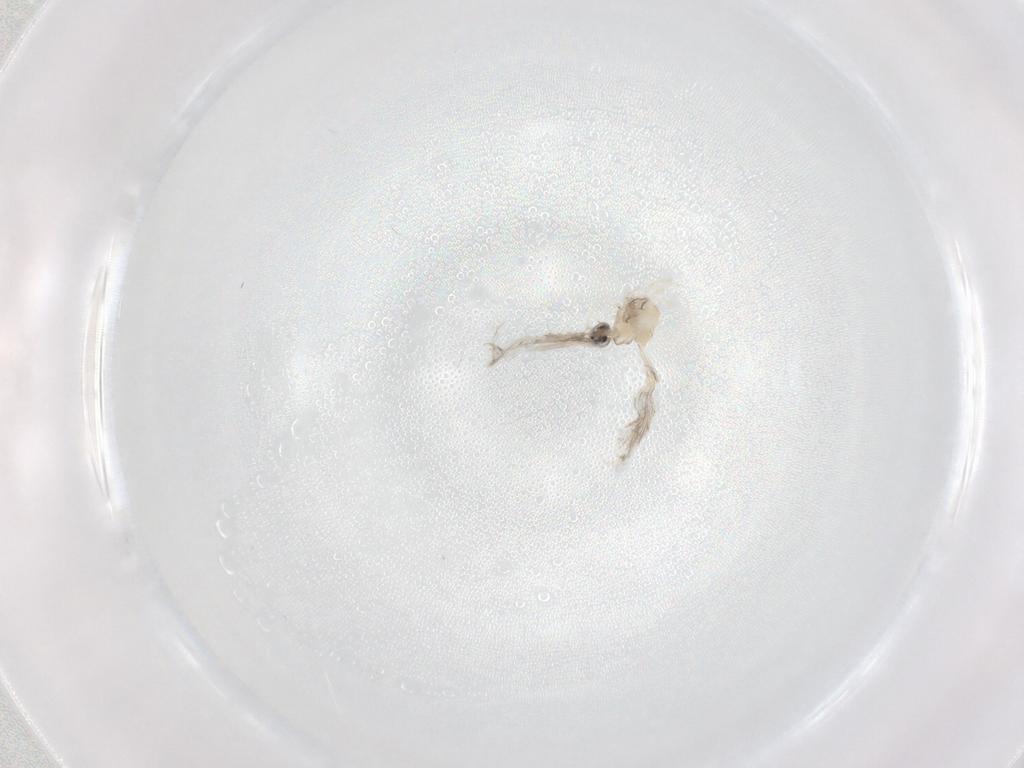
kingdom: Animalia
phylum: Arthropoda
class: Insecta
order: Diptera
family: Cecidomyiidae
